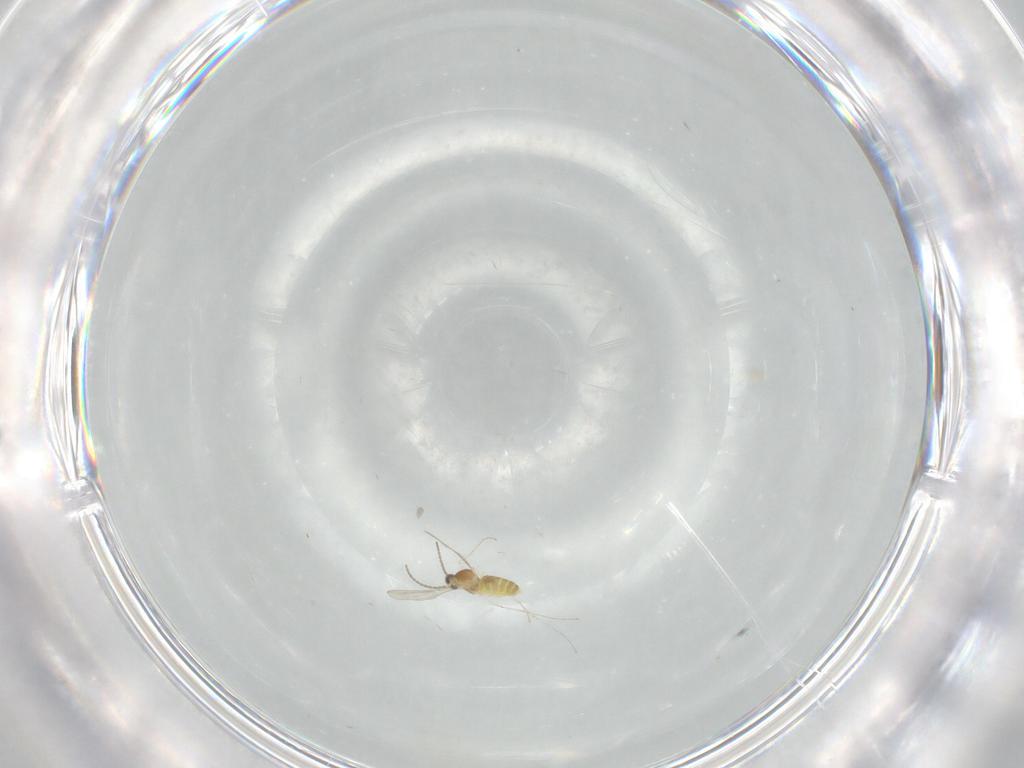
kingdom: Animalia
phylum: Arthropoda
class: Insecta
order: Diptera
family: Cecidomyiidae
